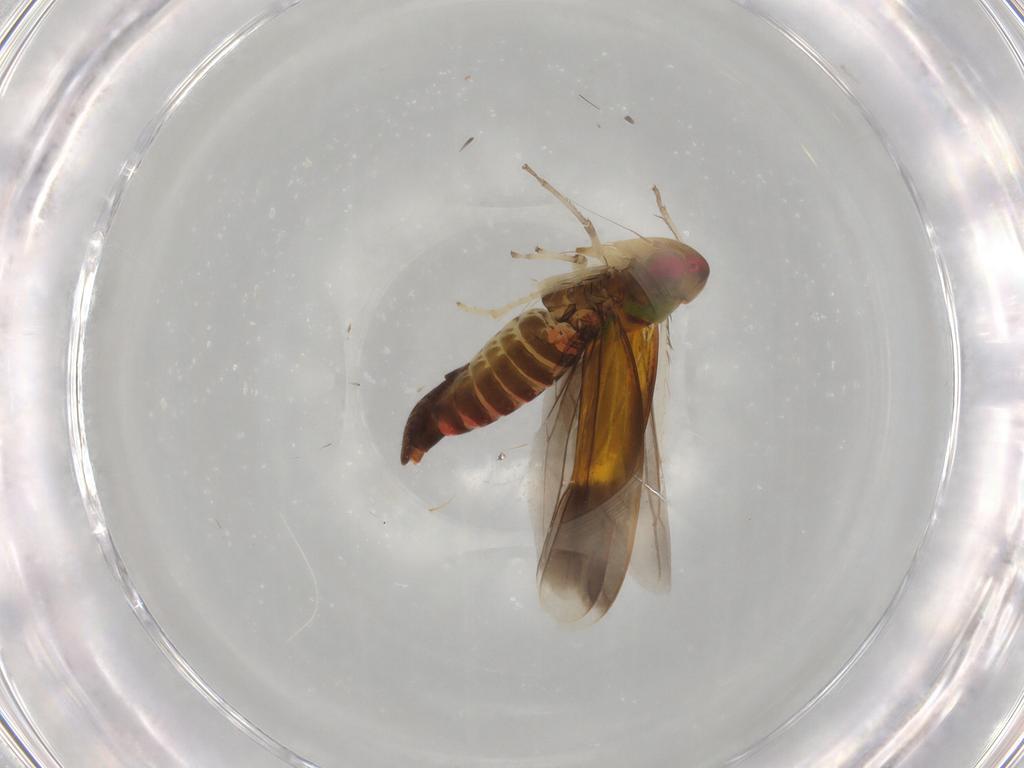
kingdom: Animalia
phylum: Arthropoda
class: Insecta
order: Hemiptera
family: Cicadellidae
